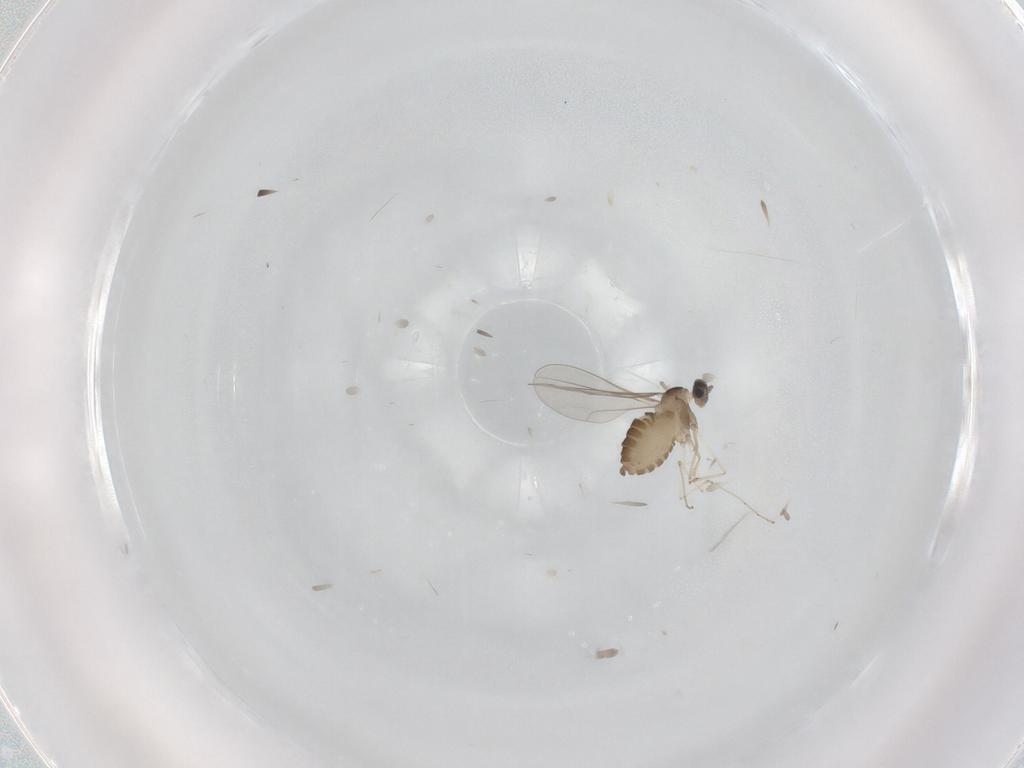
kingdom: Animalia
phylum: Arthropoda
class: Insecta
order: Diptera
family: Cecidomyiidae
